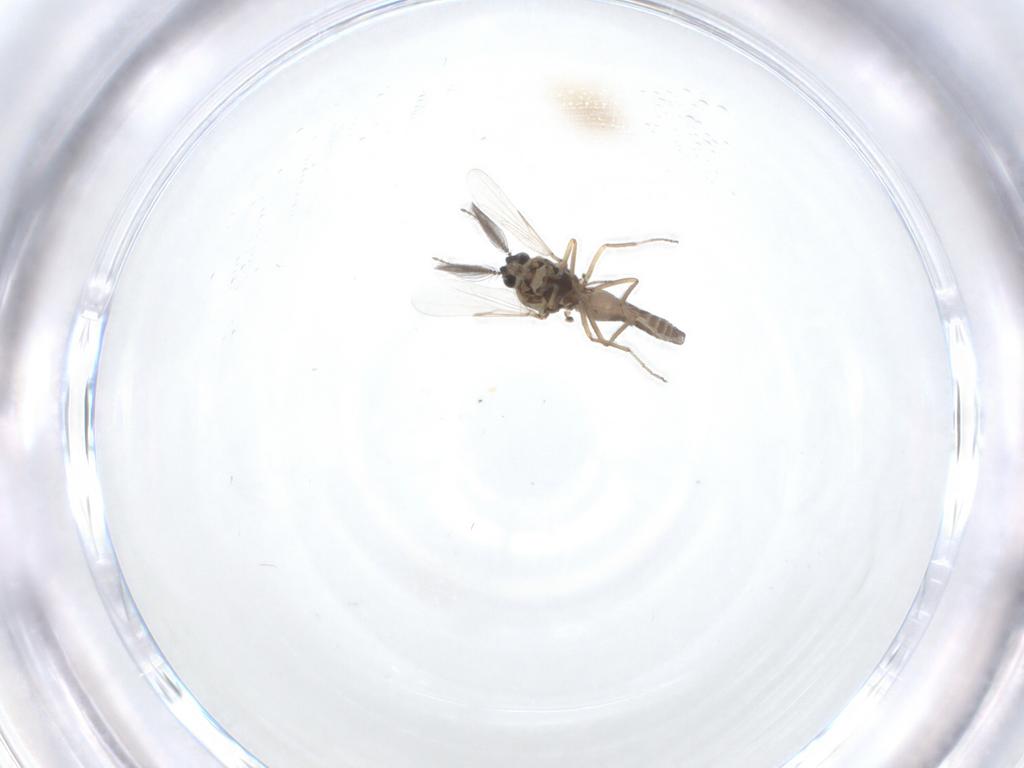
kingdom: Animalia
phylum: Arthropoda
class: Insecta
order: Diptera
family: Ceratopogonidae
